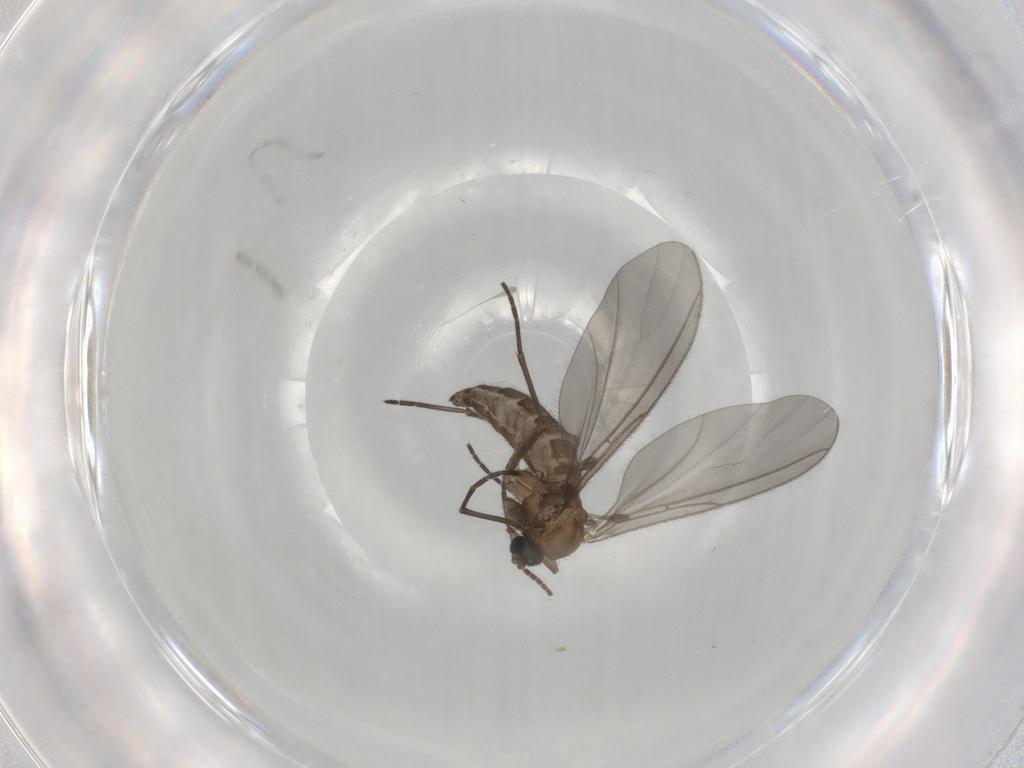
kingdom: Animalia
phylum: Arthropoda
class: Insecta
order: Diptera
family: Sciaridae
